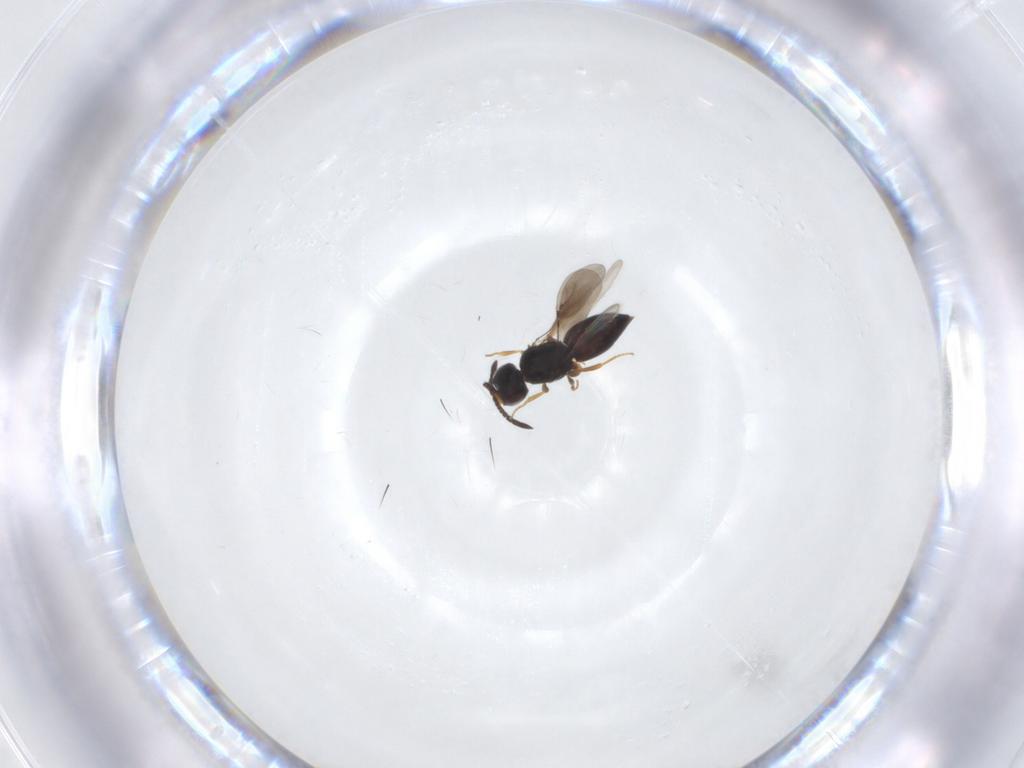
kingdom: Animalia
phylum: Arthropoda
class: Insecta
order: Hymenoptera
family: Ceraphronidae
